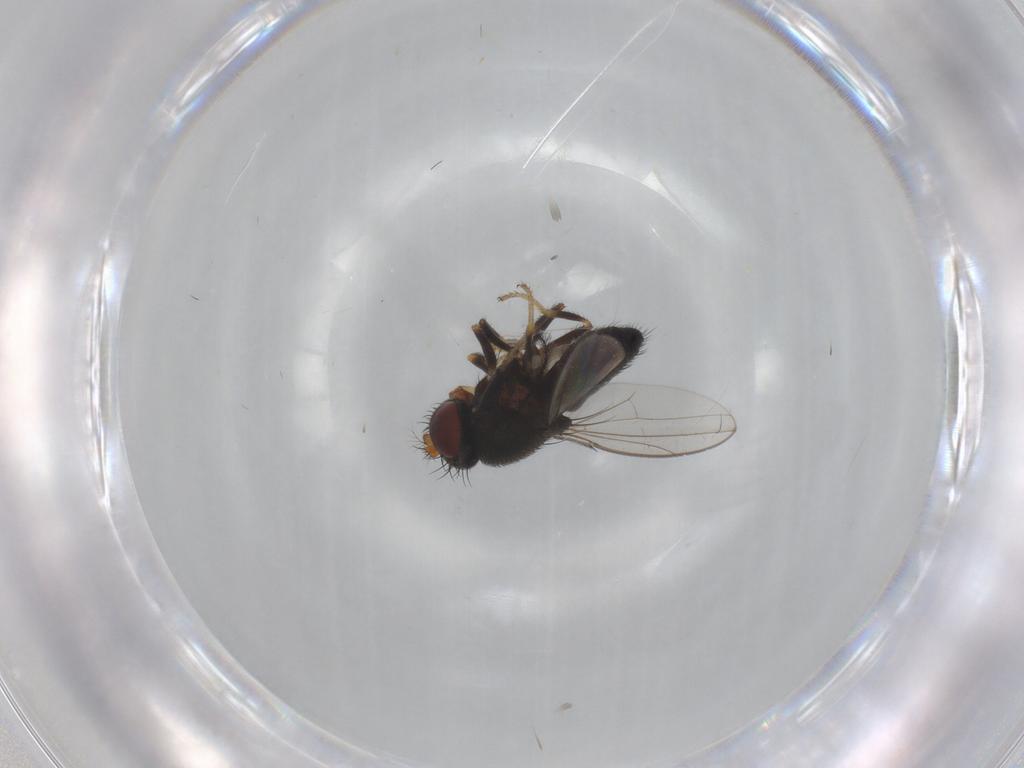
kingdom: Animalia
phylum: Arthropoda
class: Insecta
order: Diptera
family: Ephydridae
